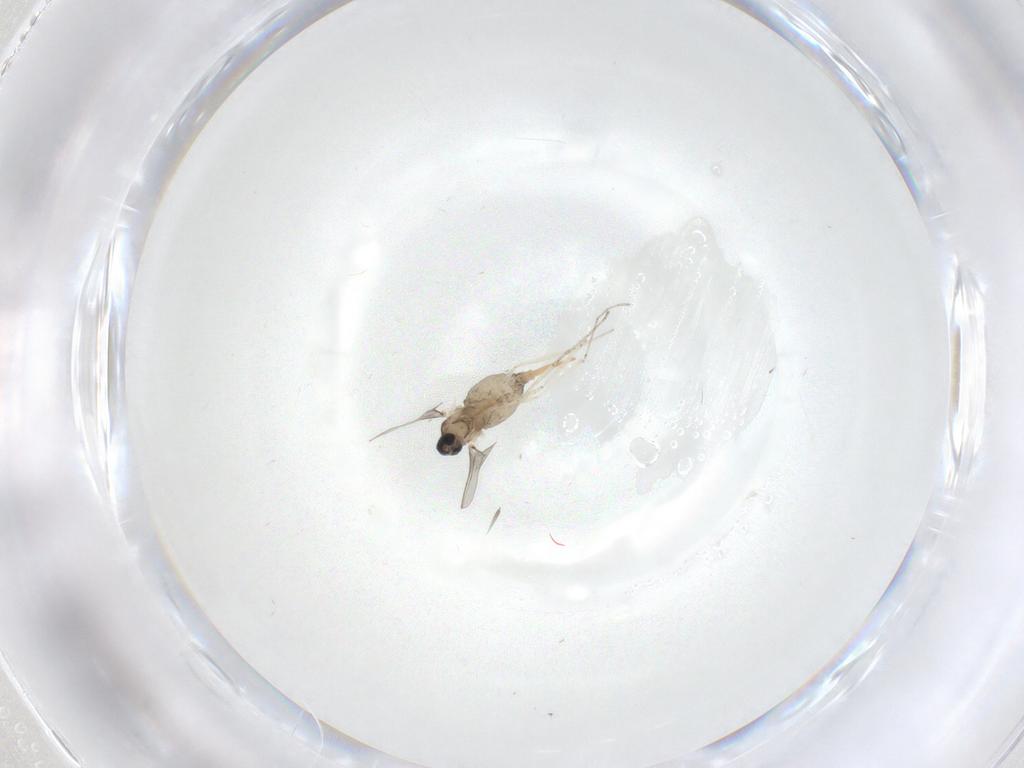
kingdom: Animalia
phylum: Arthropoda
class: Insecta
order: Diptera
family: Cecidomyiidae
